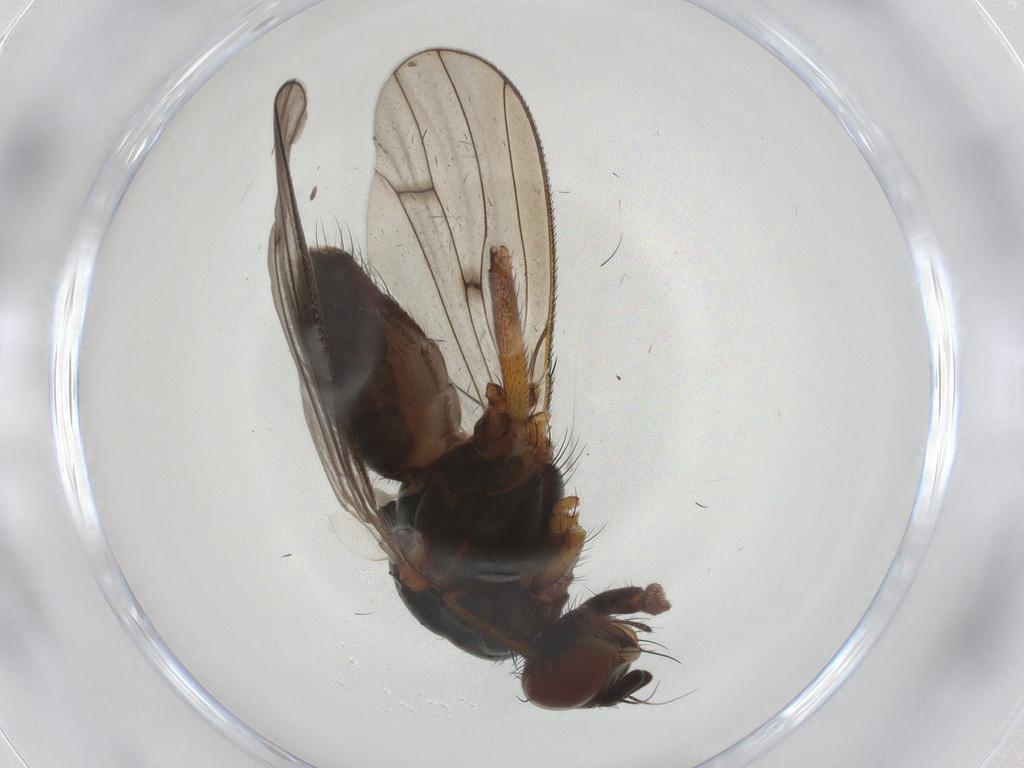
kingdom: Animalia
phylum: Arthropoda
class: Insecta
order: Diptera
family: Anthomyiidae
